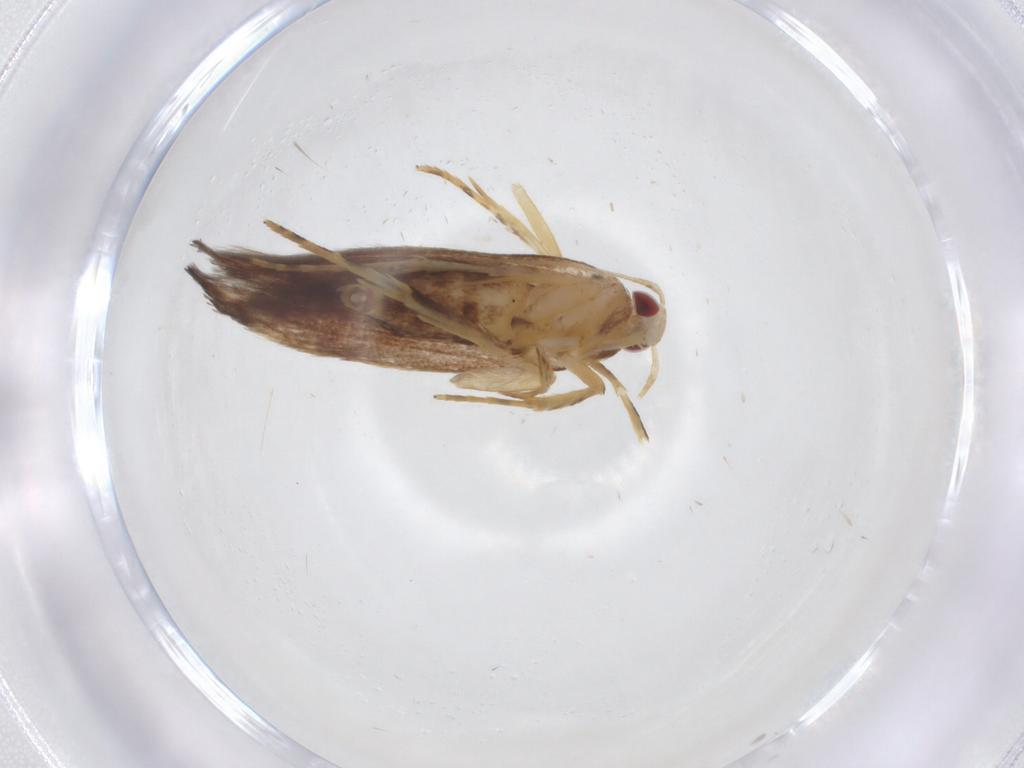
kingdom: Animalia
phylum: Arthropoda
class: Insecta
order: Lepidoptera
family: Cosmopterigidae
